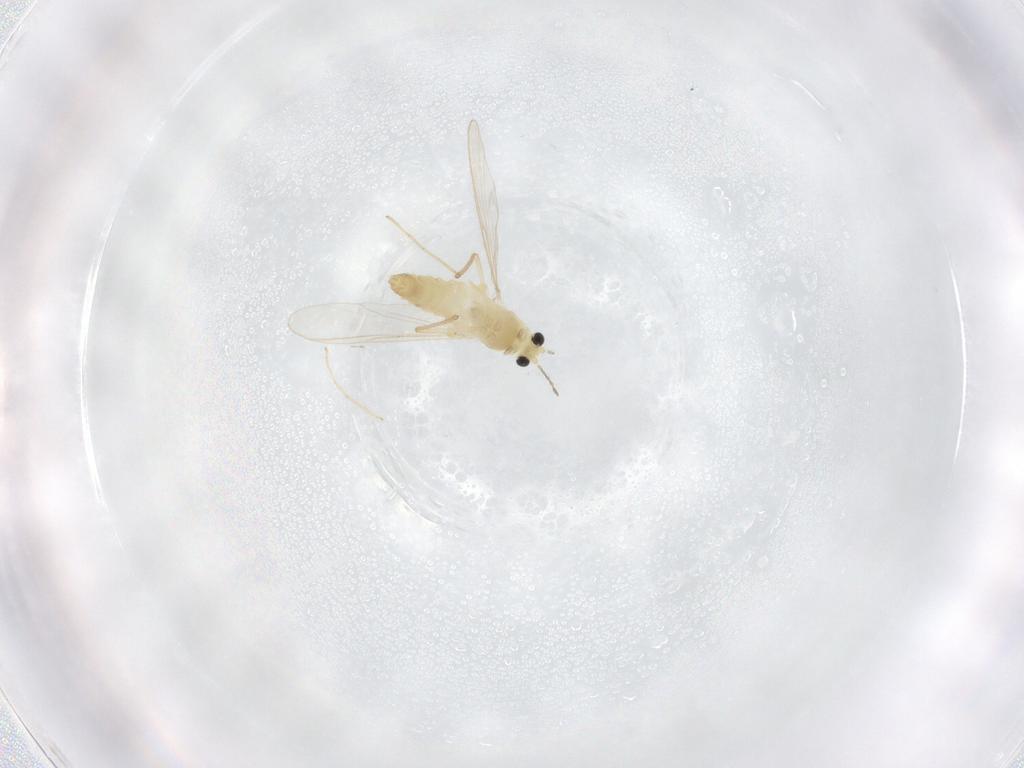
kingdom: Animalia
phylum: Arthropoda
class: Insecta
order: Diptera
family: Chironomidae
